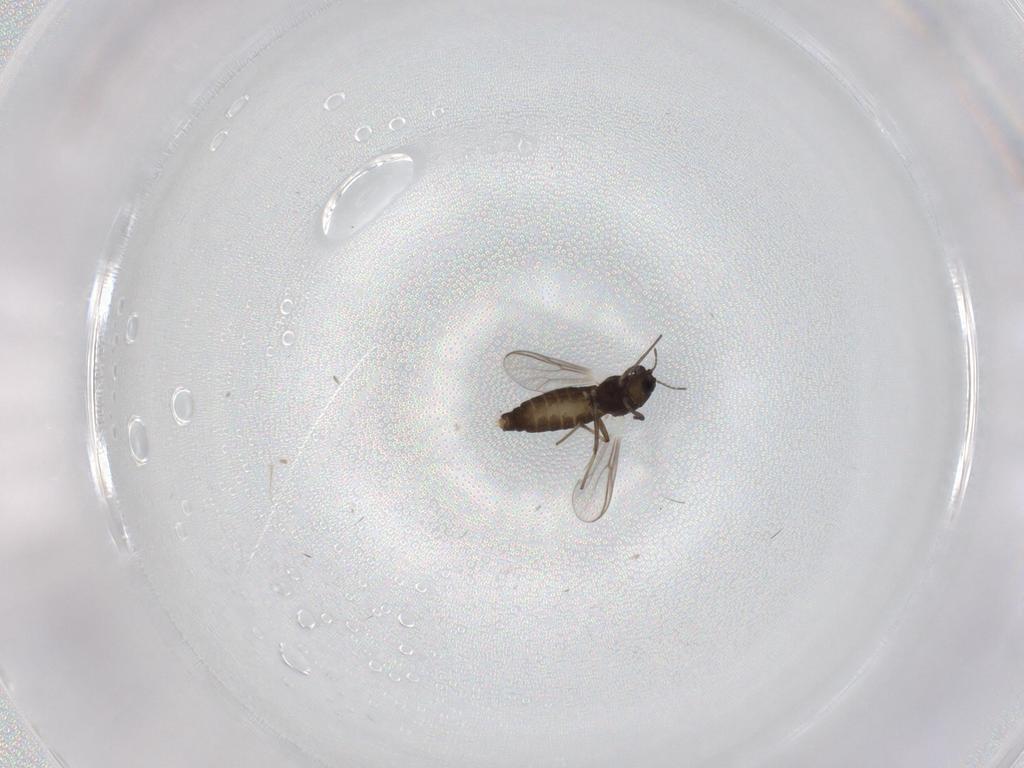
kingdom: Animalia
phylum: Arthropoda
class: Insecta
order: Diptera
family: Chironomidae
